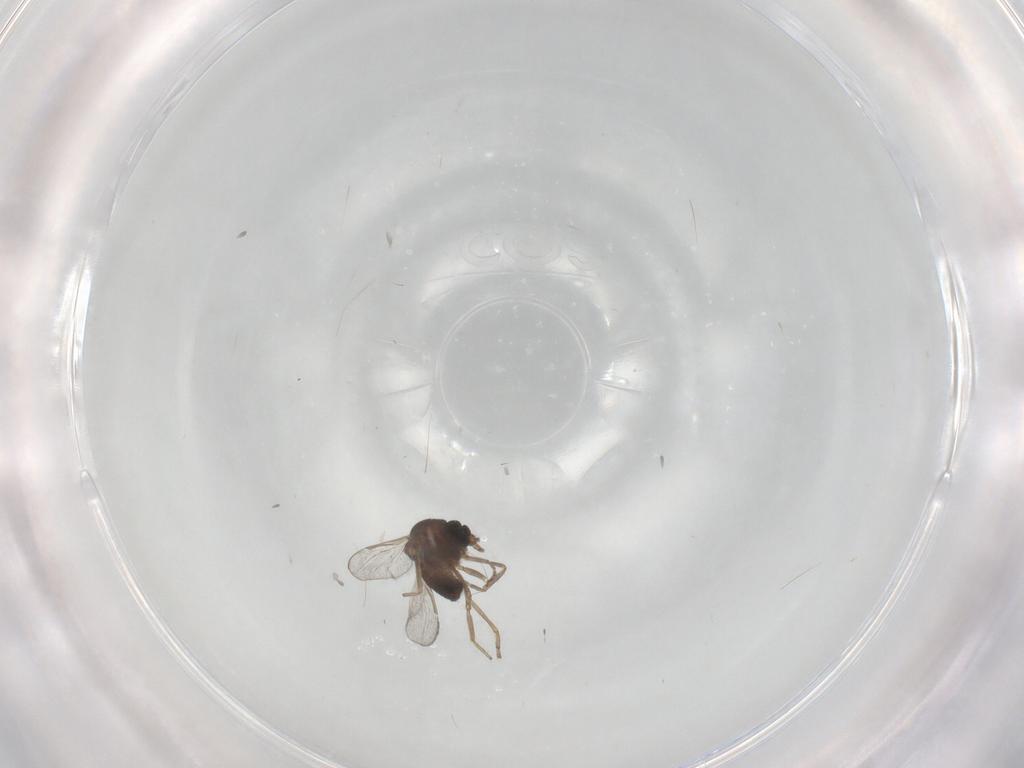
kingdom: Animalia
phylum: Arthropoda
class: Insecta
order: Diptera
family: Ceratopogonidae
